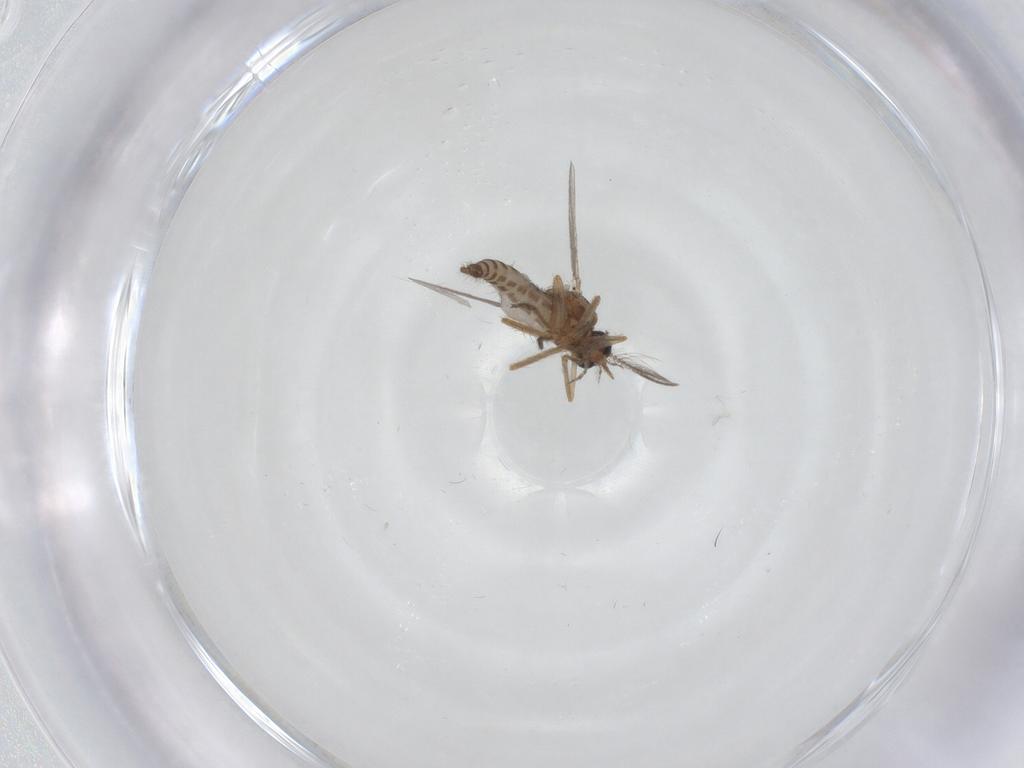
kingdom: Animalia
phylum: Arthropoda
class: Insecta
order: Diptera
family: Ceratopogonidae
